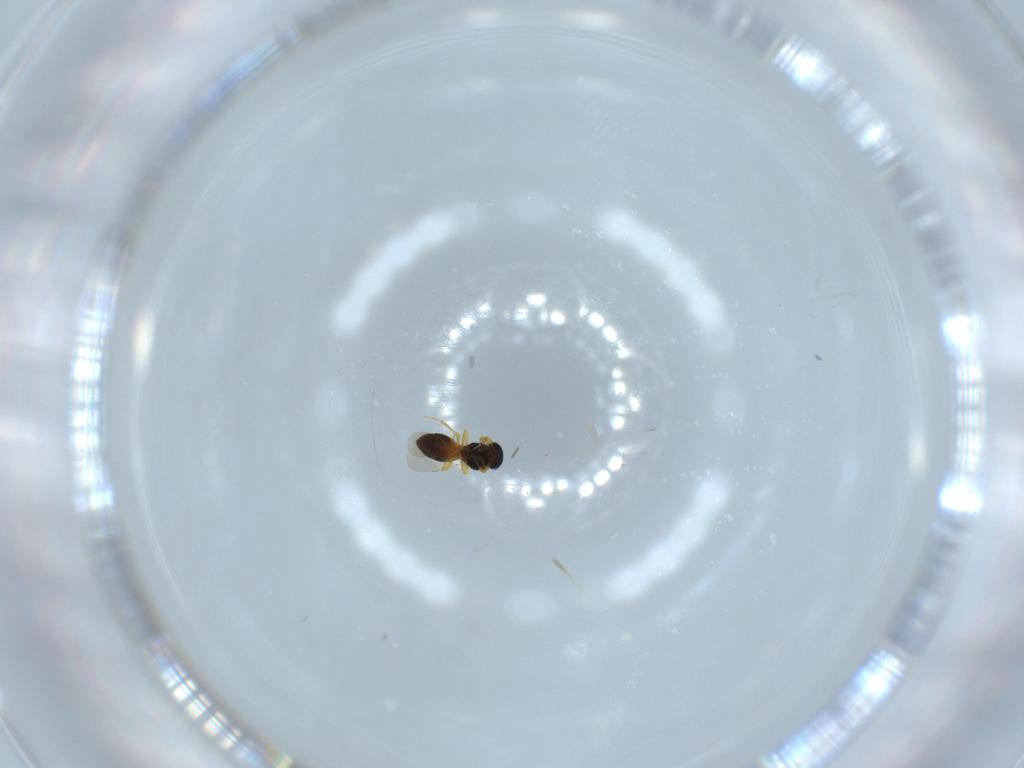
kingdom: Animalia
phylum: Arthropoda
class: Insecta
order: Hymenoptera
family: Platygastridae
